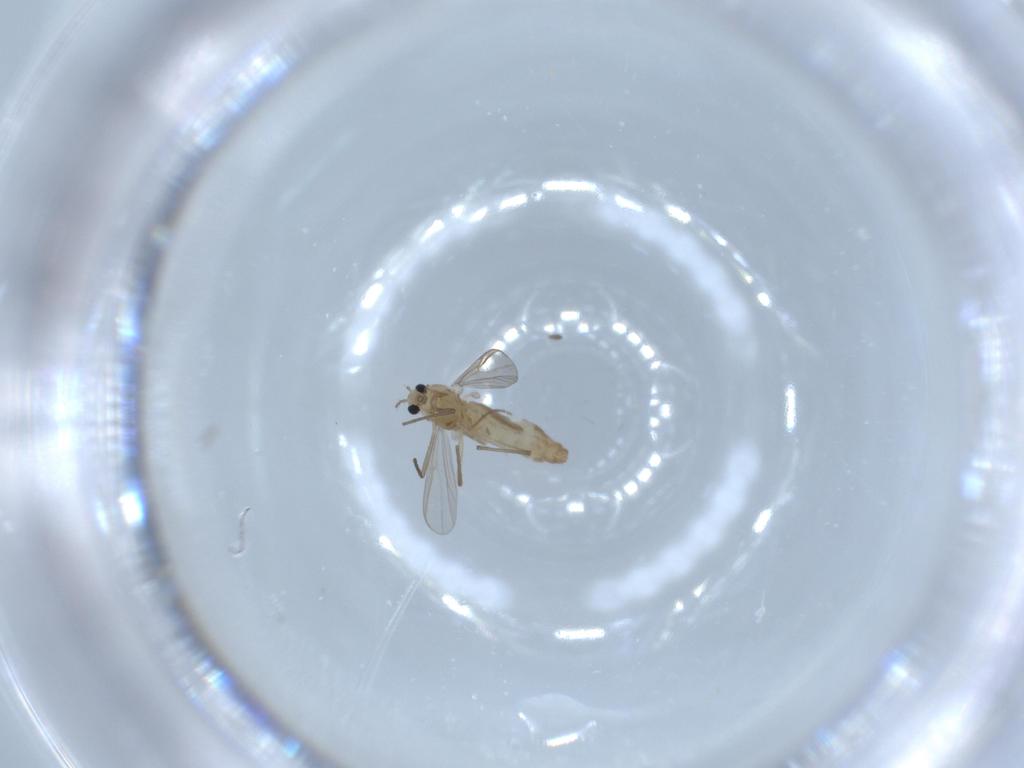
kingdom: Animalia
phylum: Arthropoda
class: Insecta
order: Diptera
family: Chironomidae
